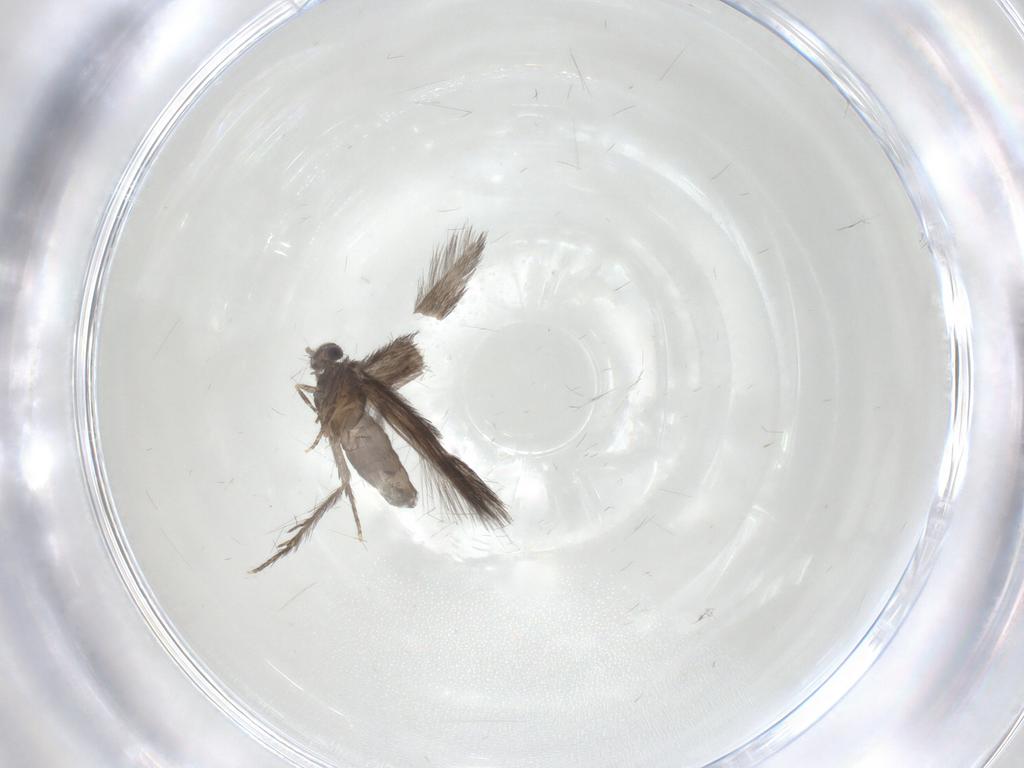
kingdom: Animalia
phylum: Arthropoda
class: Insecta
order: Trichoptera
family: Hydroptilidae
